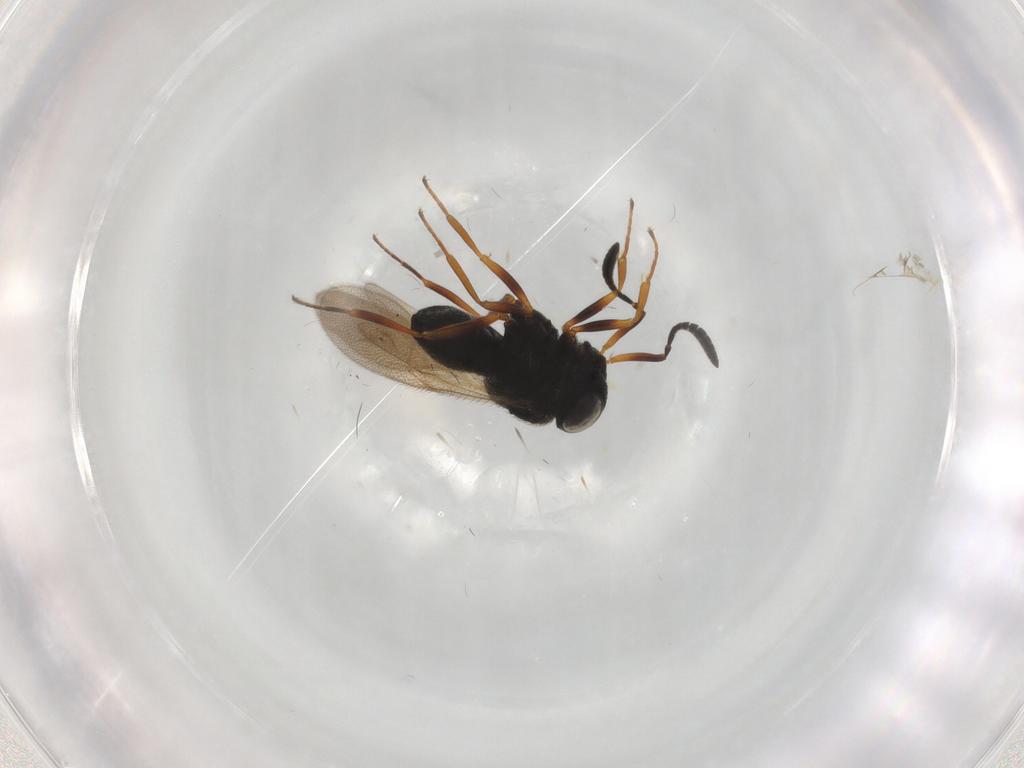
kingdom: Animalia
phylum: Arthropoda
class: Insecta
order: Hymenoptera
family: Scelionidae
